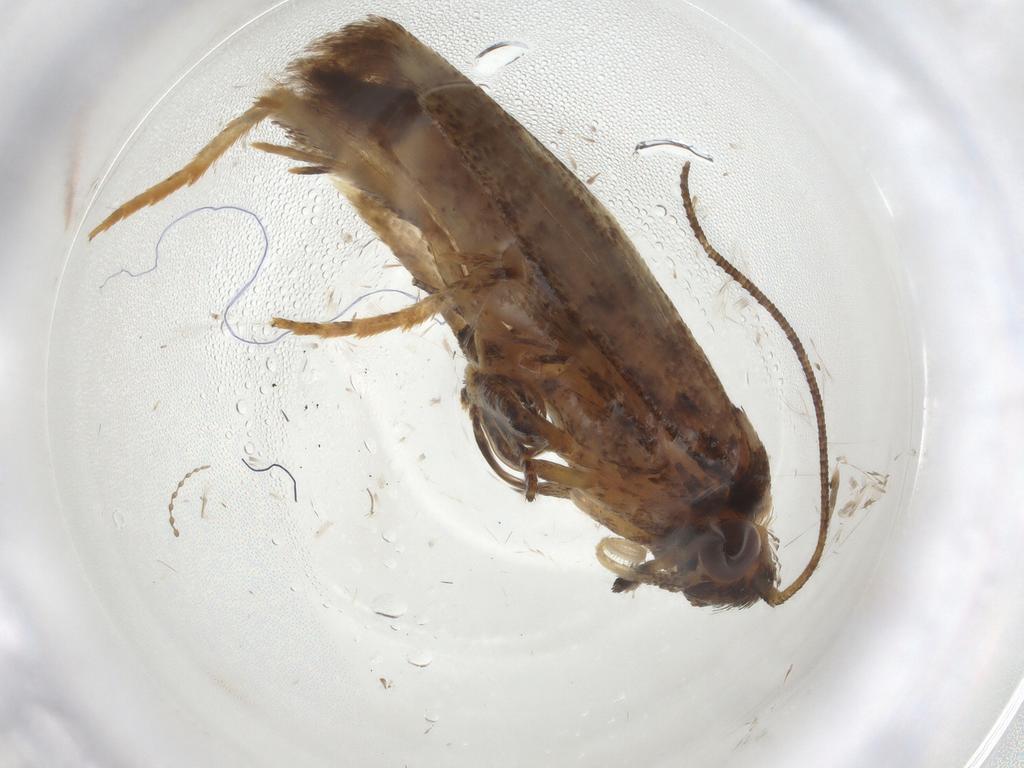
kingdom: Animalia
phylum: Arthropoda
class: Insecta
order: Lepidoptera
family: Gelechiidae
